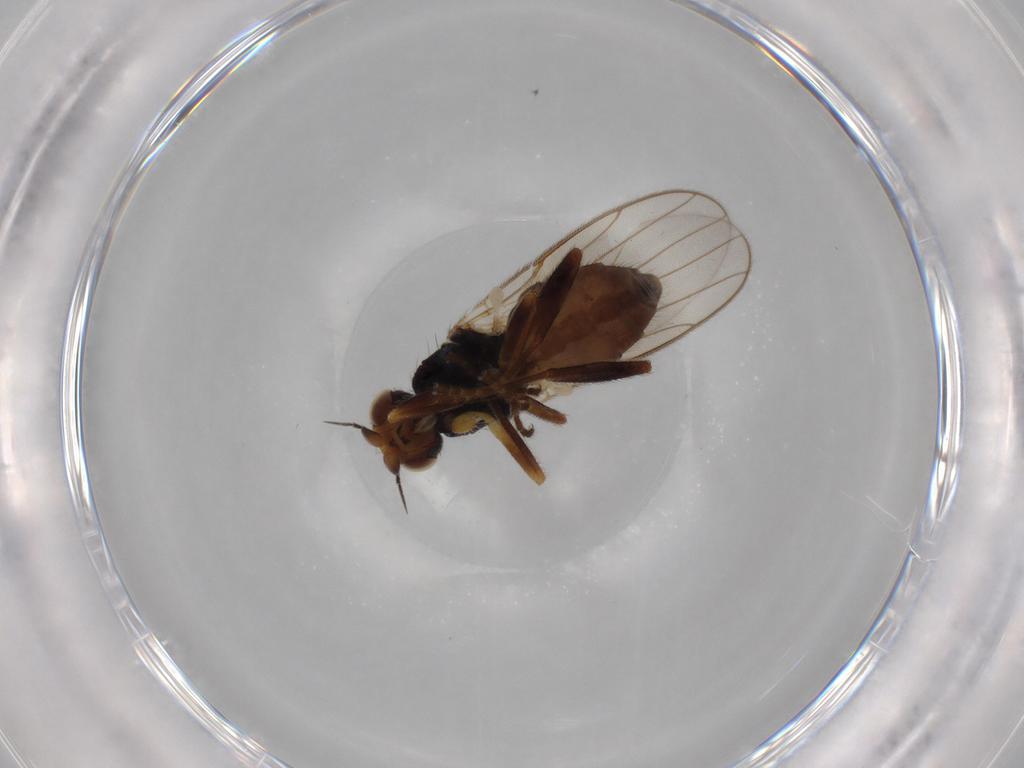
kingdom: Animalia
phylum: Arthropoda
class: Insecta
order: Diptera
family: Chloropidae
